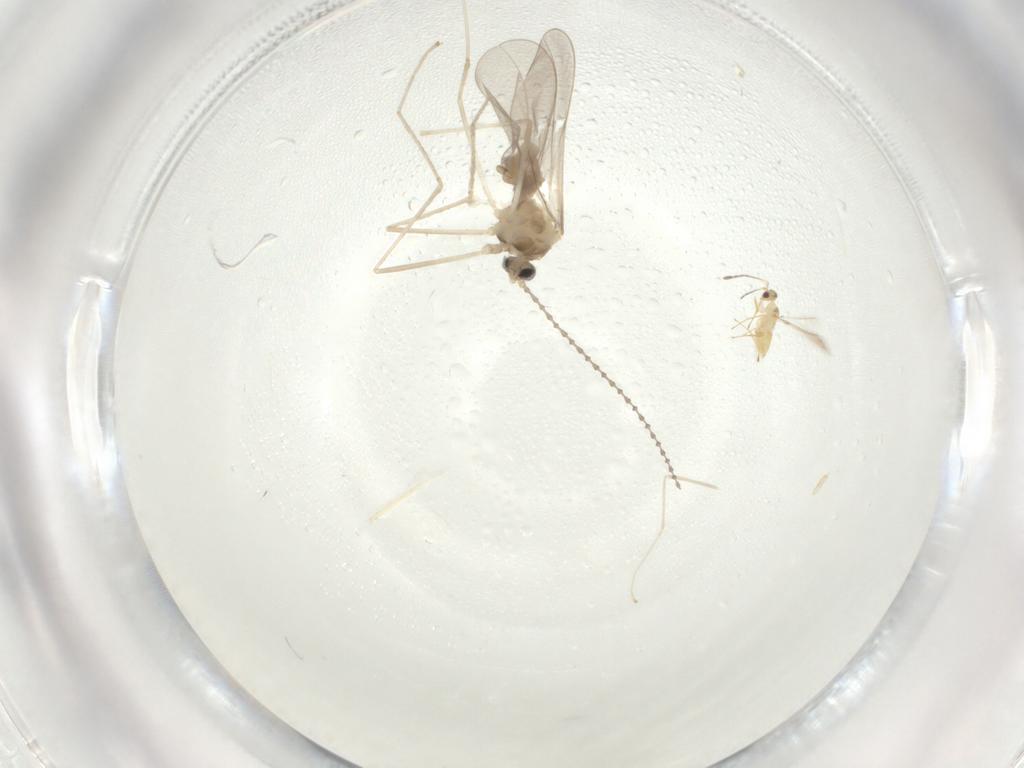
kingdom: Animalia
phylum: Arthropoda
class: Insecta
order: Diptera
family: Cecidomyiidae
